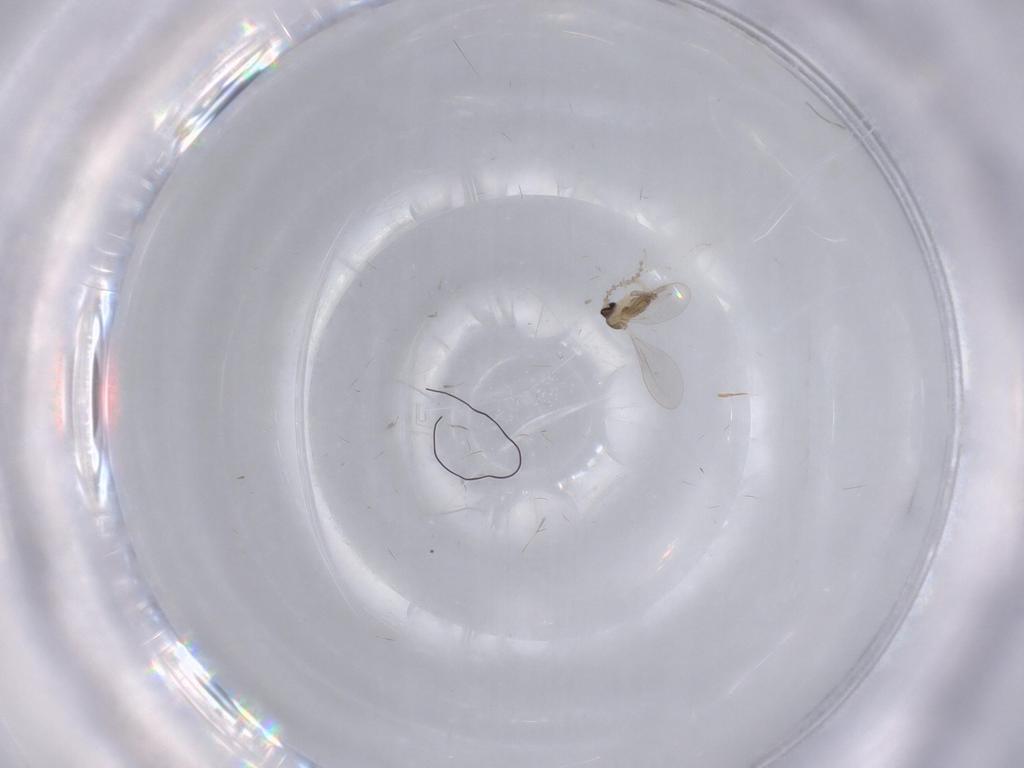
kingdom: Animalia
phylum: Arthropoda
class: Insecta
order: Diptera
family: Cecidomyiidae
